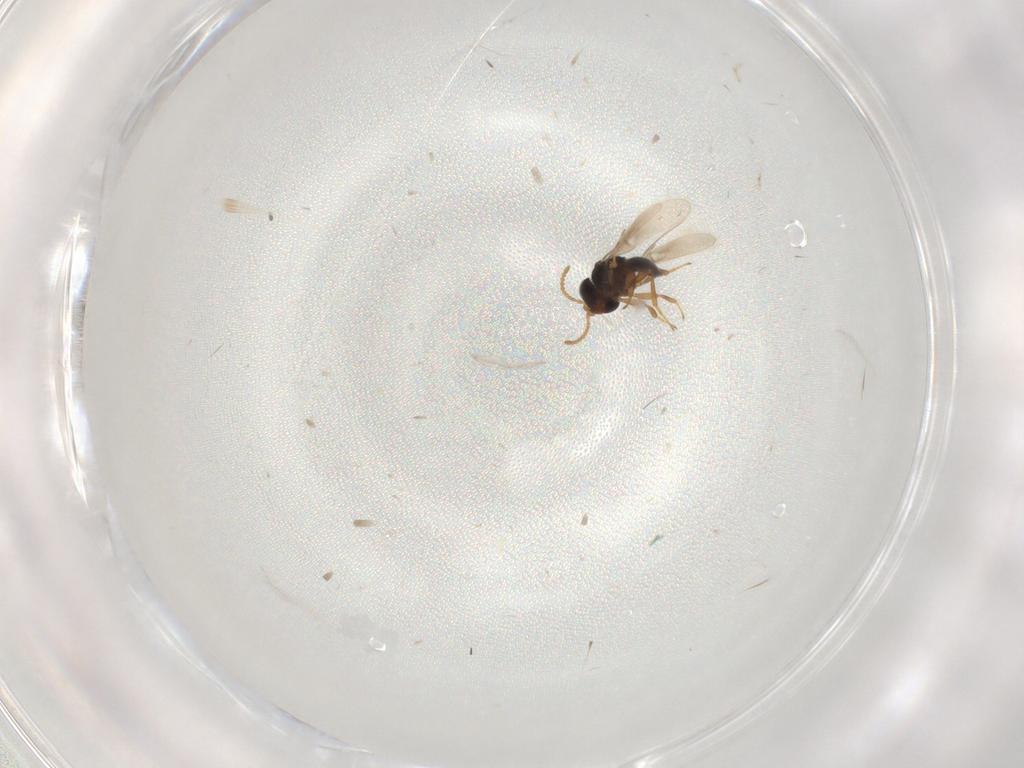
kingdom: Animalia
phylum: Arthropoda
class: Insecta
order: Hymenoptera
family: Scelionidae
